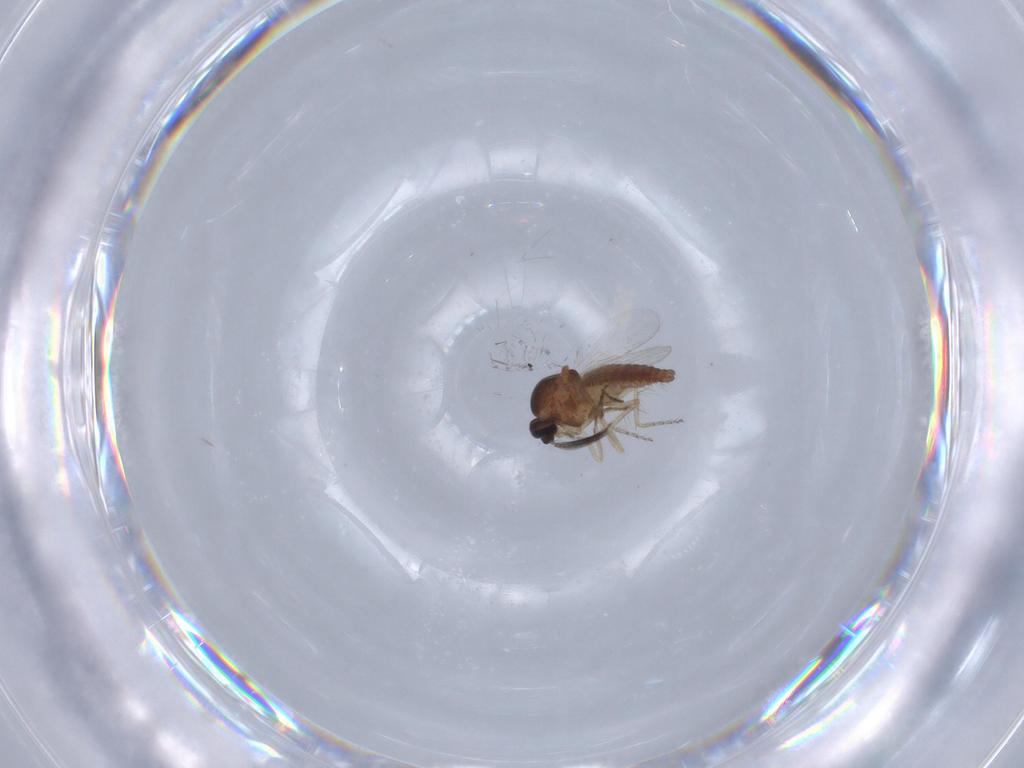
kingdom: Animalia
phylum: Arthropoda
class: Insecta
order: Diptera
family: Ceratopogonidae
